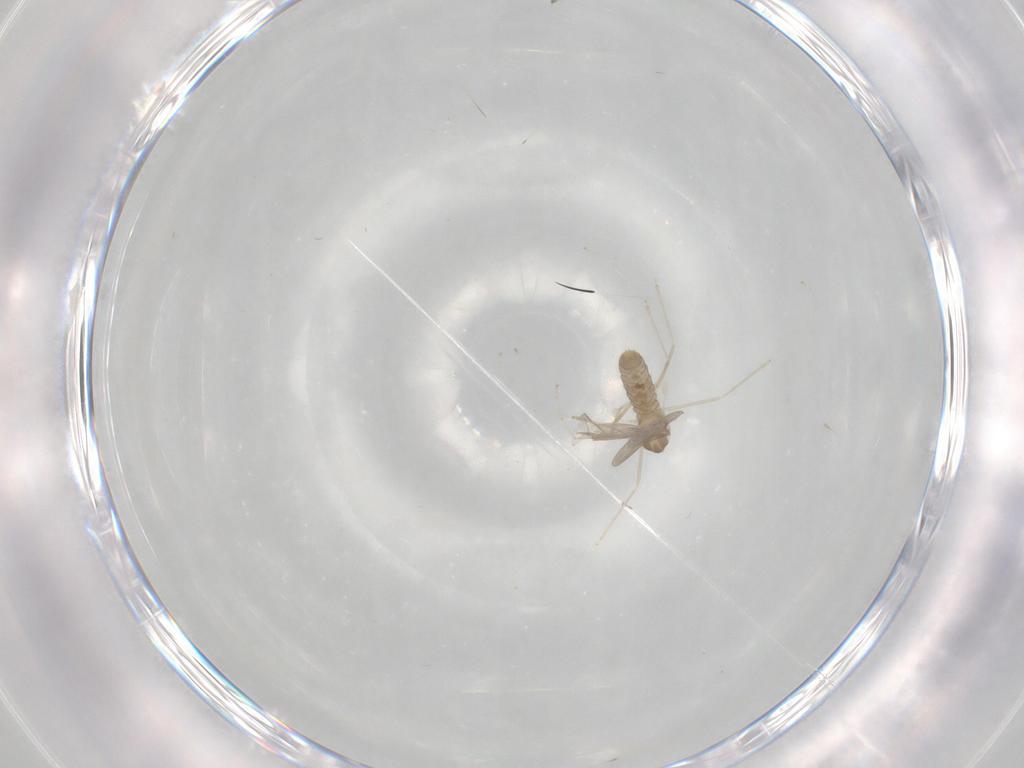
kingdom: Animalia
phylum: Arthropoda
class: Insecta
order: Diptera
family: Cecidomyiidae
